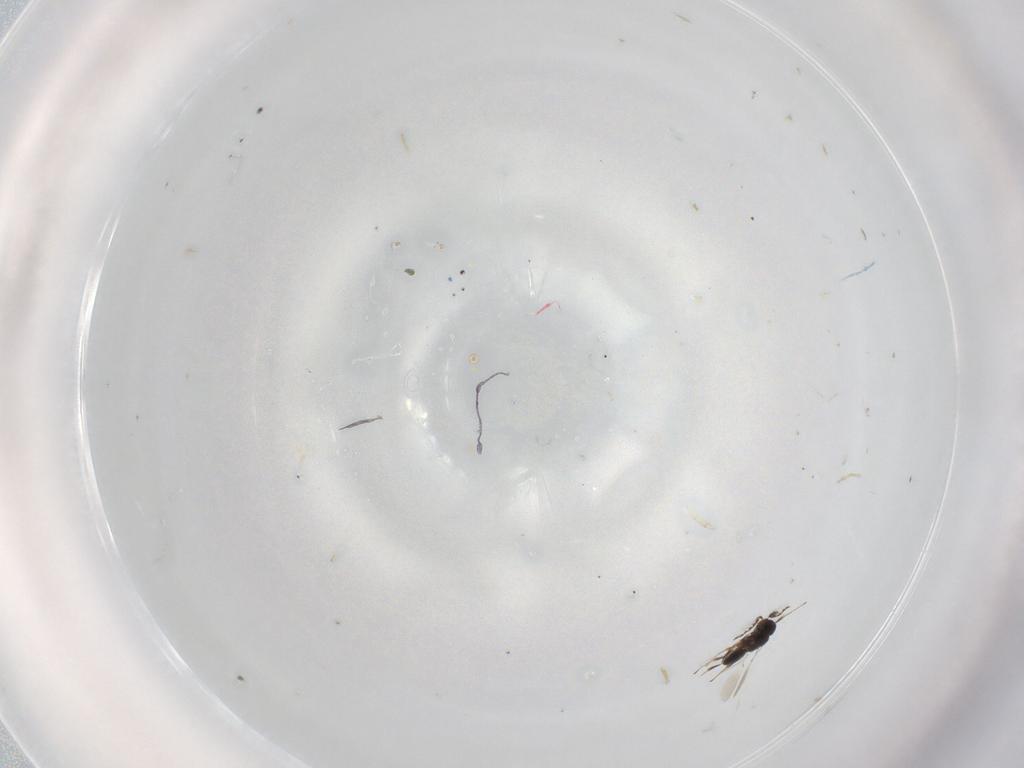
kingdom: Animalia
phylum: Arthropoda
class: Insecta
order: Hymenoptera
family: Platygastridae
